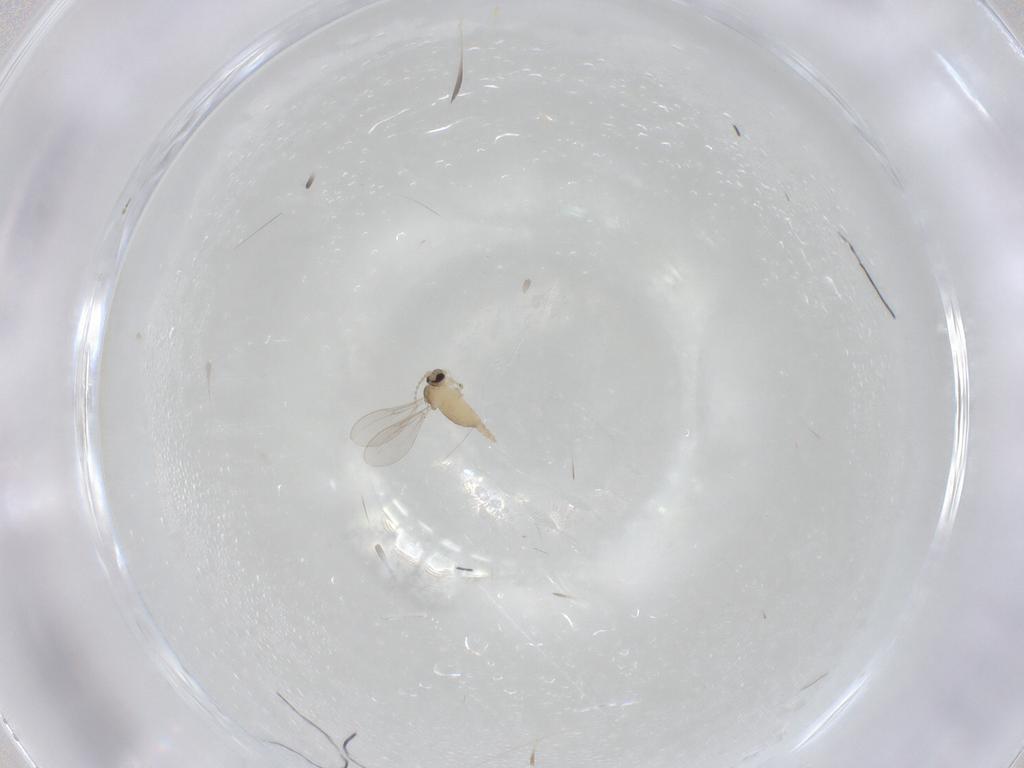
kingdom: Animalia
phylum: Arthropoda
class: Insecta
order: Diptera
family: Cecidomyiidae
